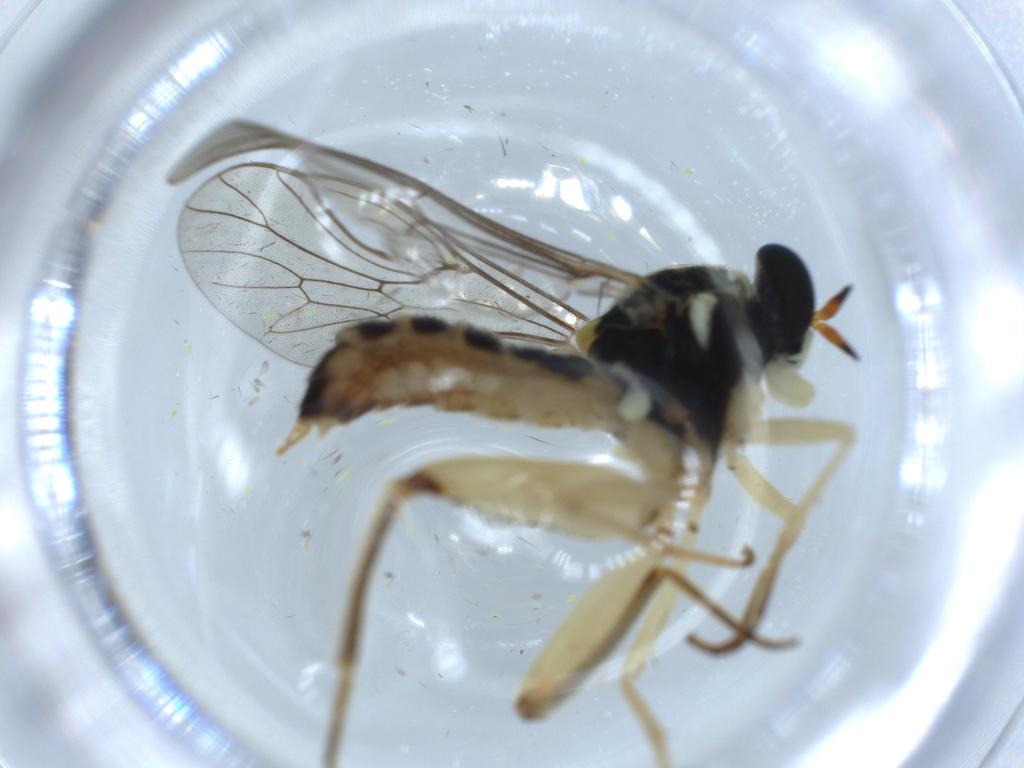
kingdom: Animalia
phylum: Arthropoda
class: Insecta
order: Diptera
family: Sciaridae
